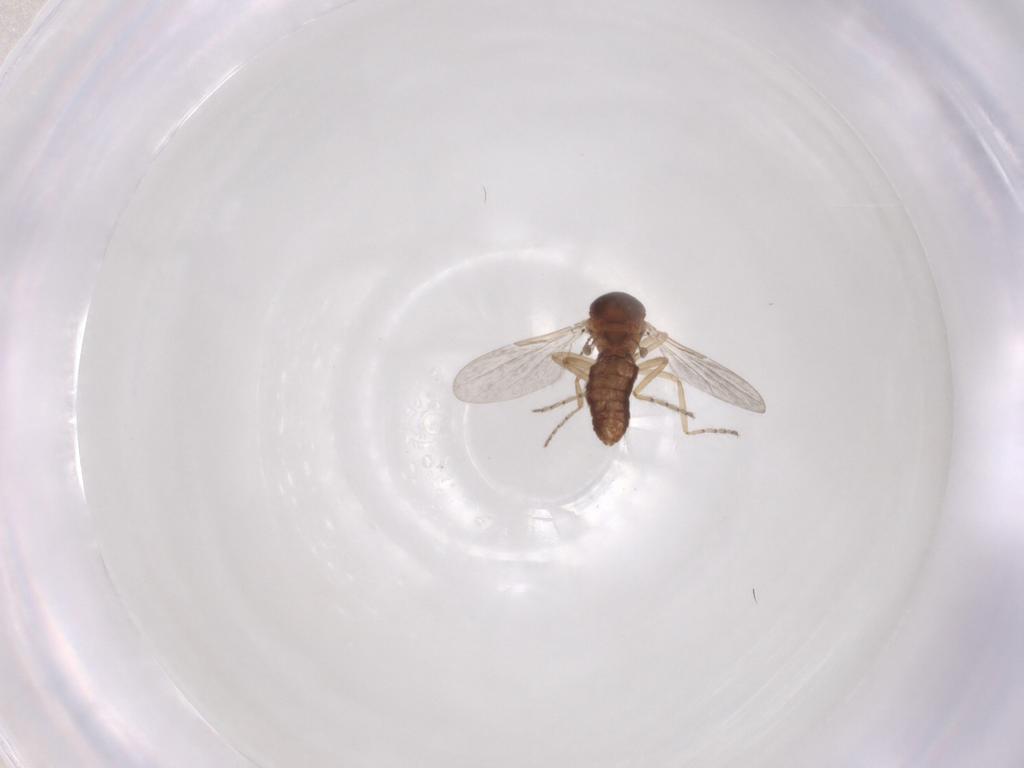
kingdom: Animalia
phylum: Arthropoda
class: Insecta
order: Diptera
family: Ceratopogonidae
